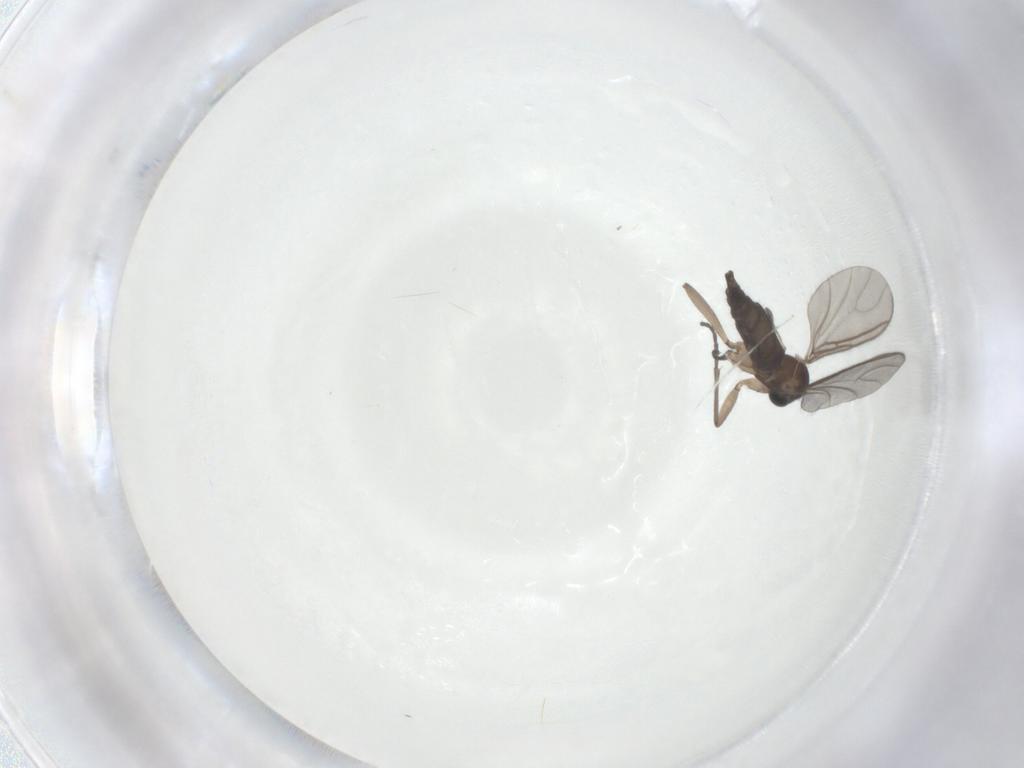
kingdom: Animalia
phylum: Arthropoda
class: Insecta
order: Diptera
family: Sciaridae
